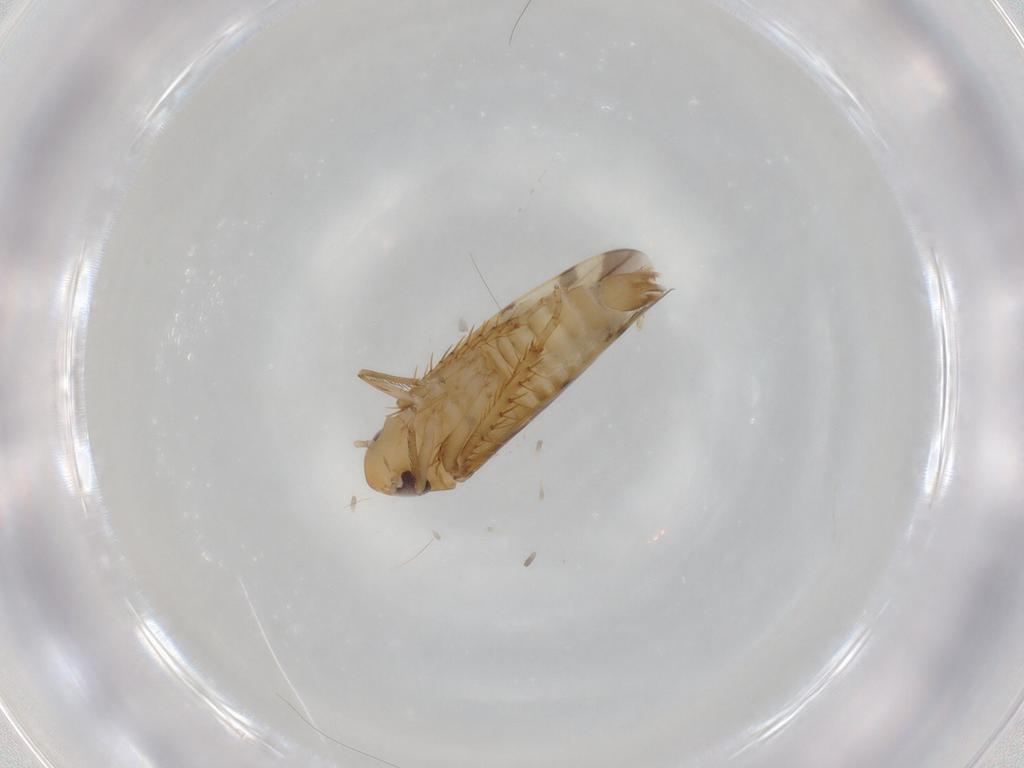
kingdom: Animalia
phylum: Arthropoda
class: Insecta
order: Hemiptera
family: Cicadellidae
